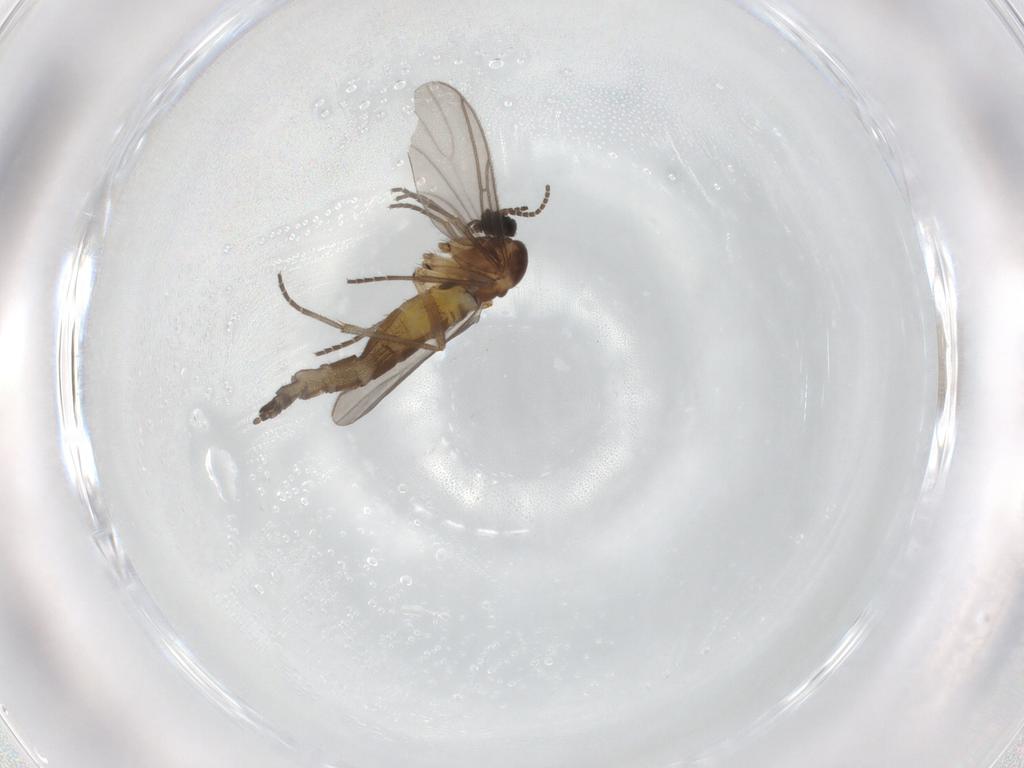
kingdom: Animalia
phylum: Arthropoda
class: Insecta
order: Diptera
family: Sciaridae
